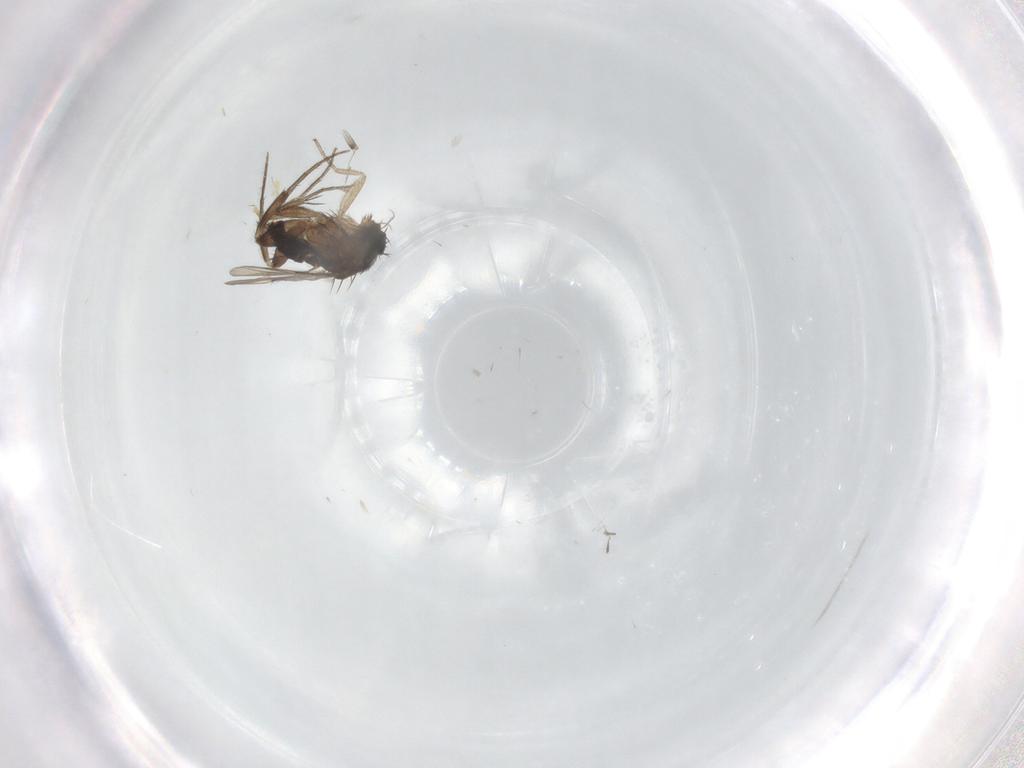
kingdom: Animalia
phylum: Arthropoda
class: Insecta
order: Diptera
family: Phoridae
